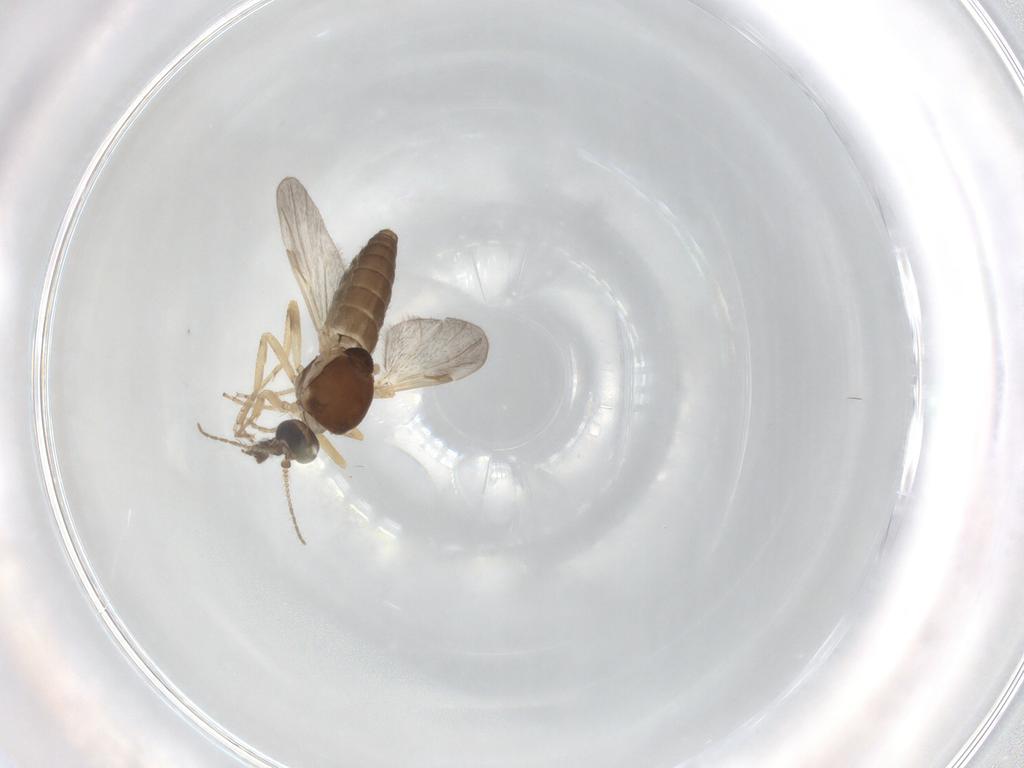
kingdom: Animalia
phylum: Arthropoda
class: Insecta
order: Diptera
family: Ceratopogonidae
